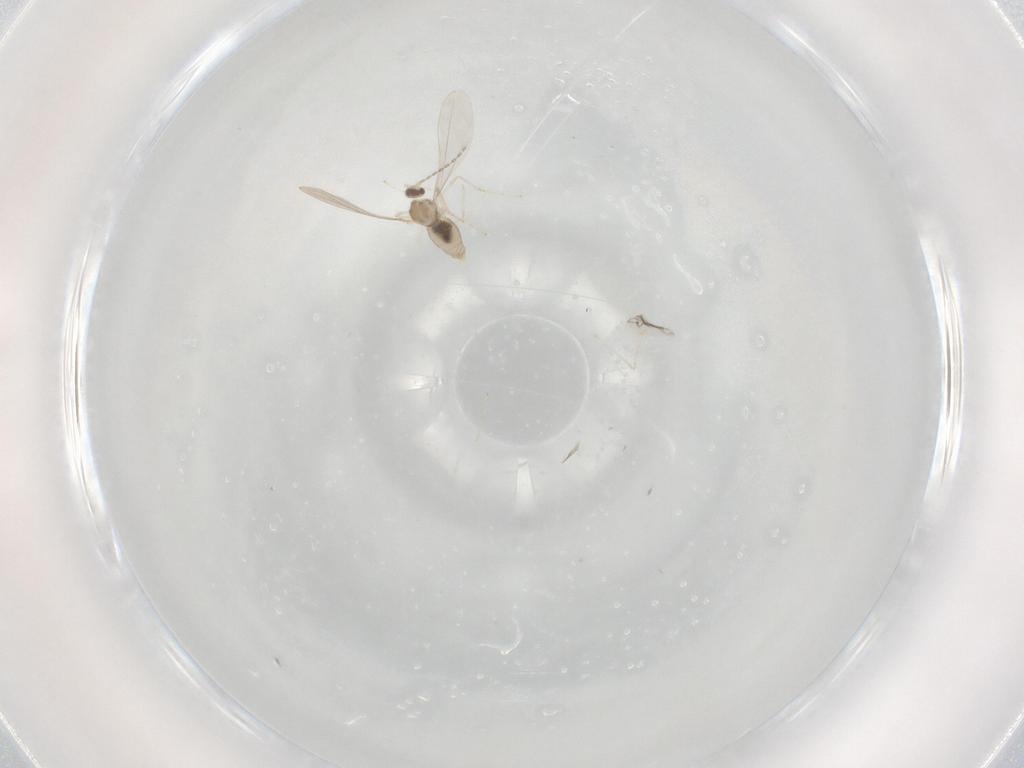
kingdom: Animalia
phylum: Arthropoda
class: Insecta
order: Diptera
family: Cecidomyiidae
